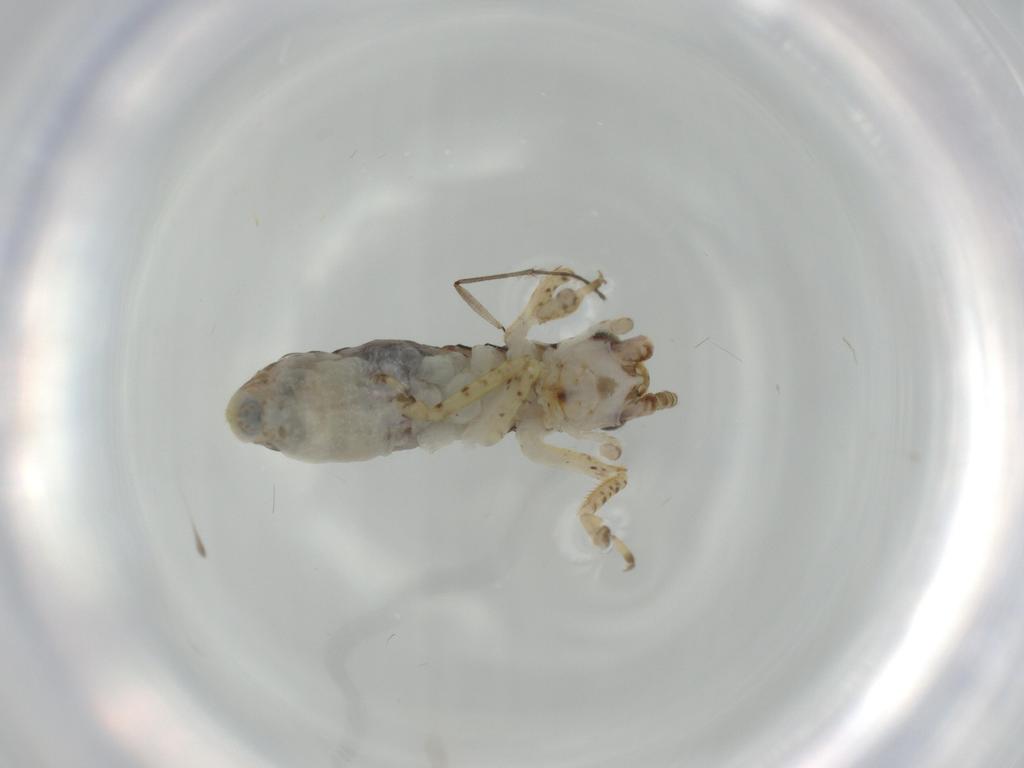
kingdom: Animalia
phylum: Arthropoda
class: Insecta
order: Orthoptera
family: Gryllidae
